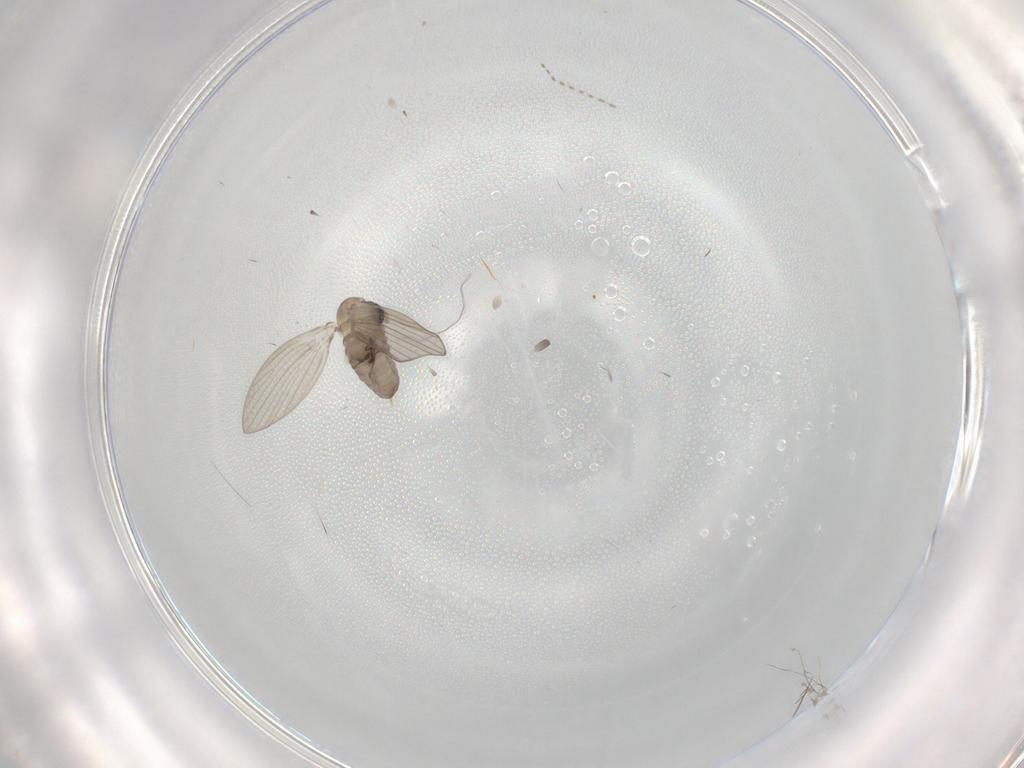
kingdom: Animalia
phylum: Arthropoda
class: Insecta
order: Diptera
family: Psychodidae
